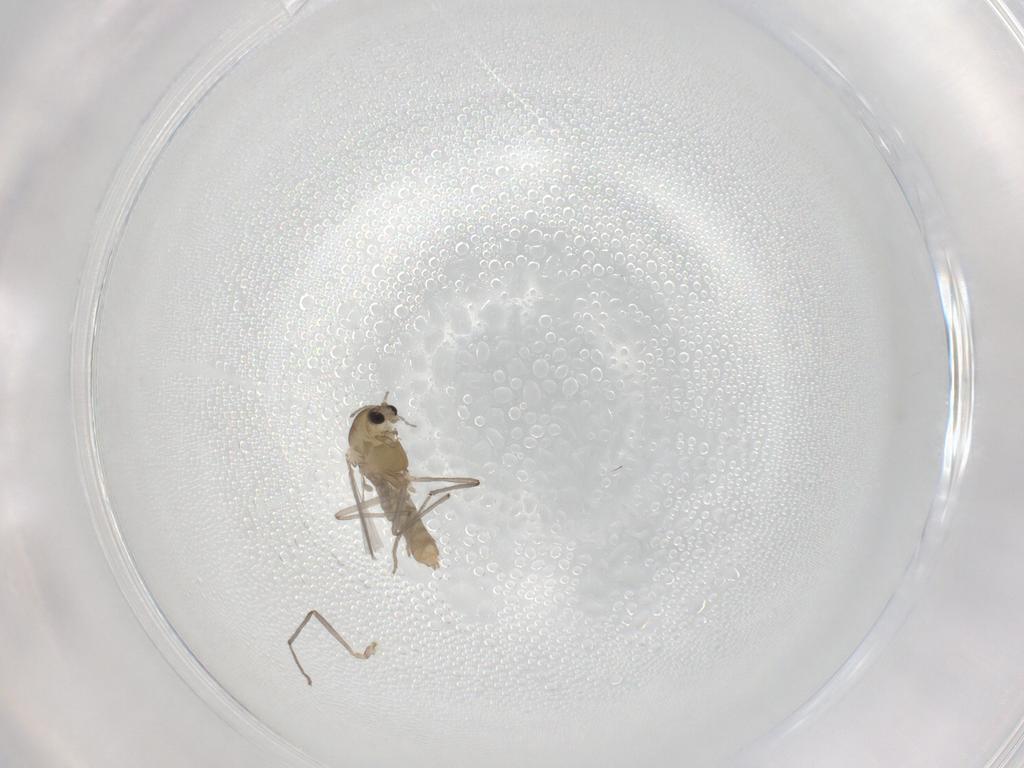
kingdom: Animalia
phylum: Arthropoda
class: Insecta
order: Diptera
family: Chironomidae
